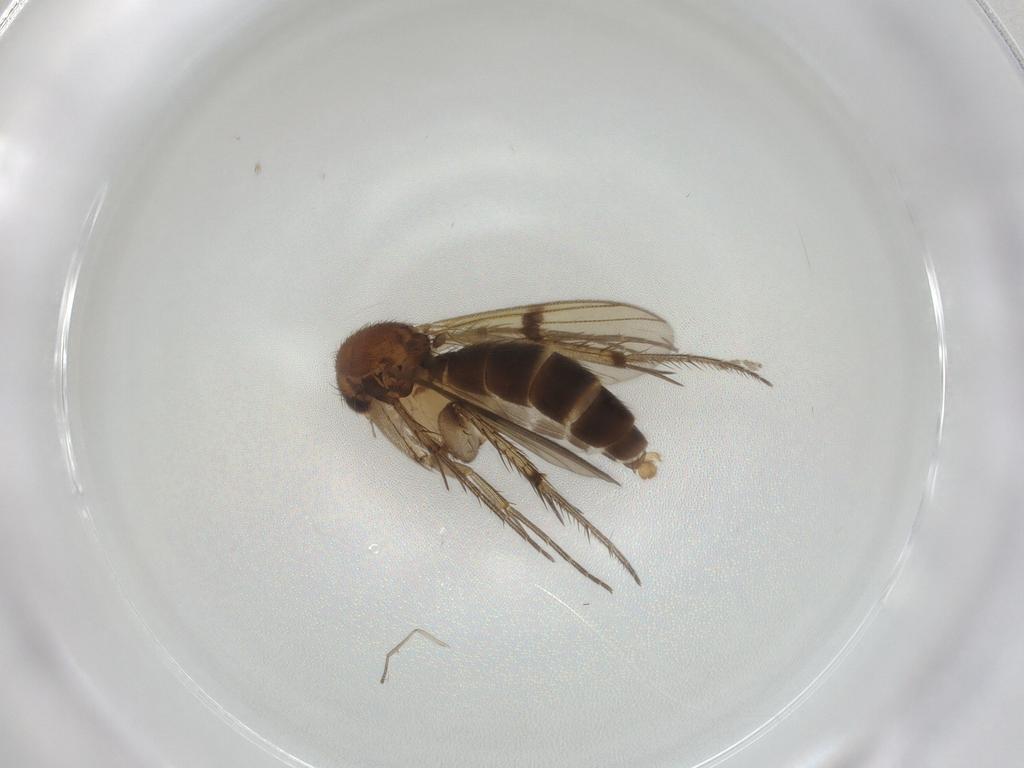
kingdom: Animalia
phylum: Arthropoda
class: Insecta
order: Diptera
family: Mycetophilidae
